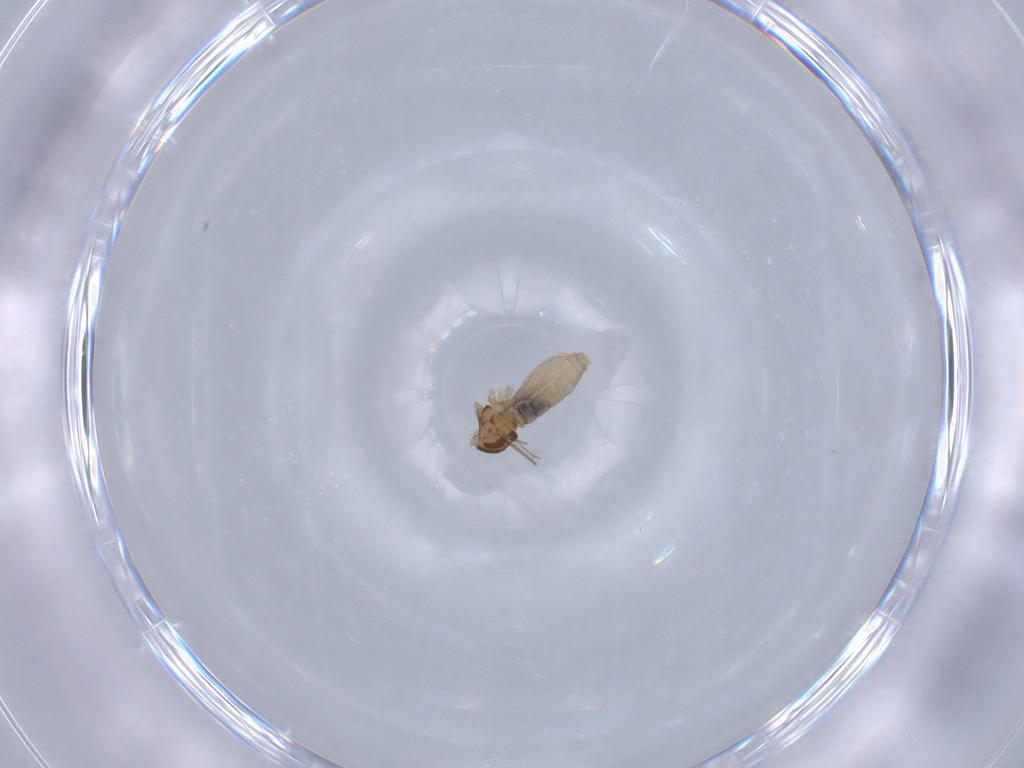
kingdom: Animalia
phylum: Arthropoda
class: Insecta
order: Diptera
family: Cecidomyiidae
